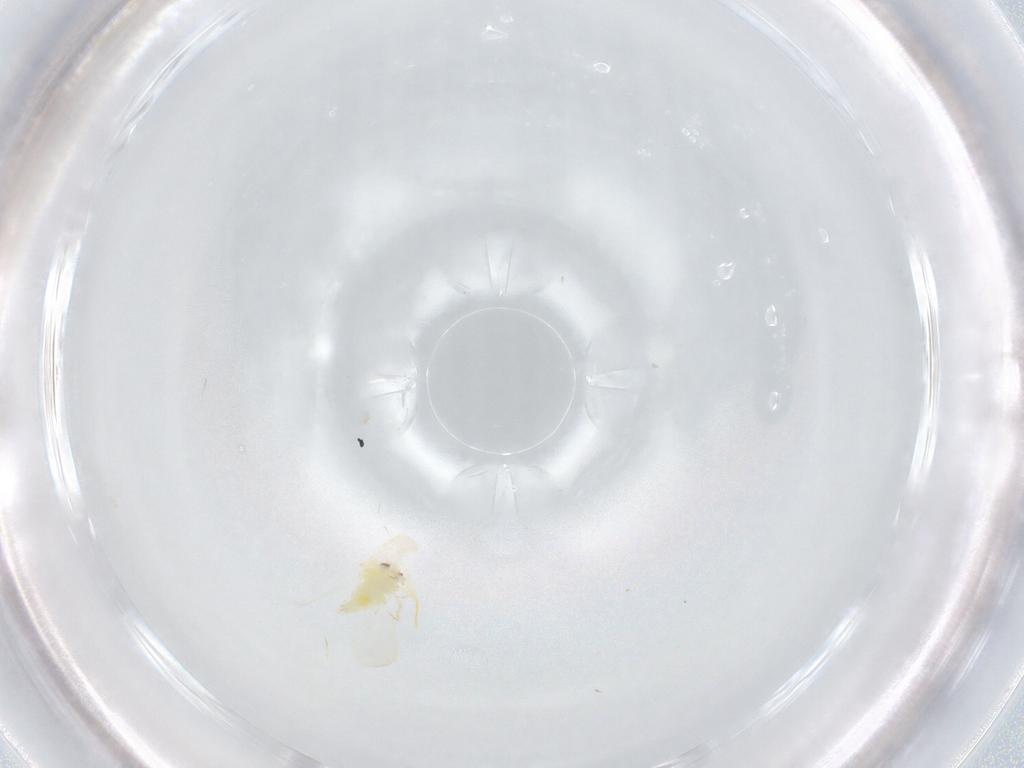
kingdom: Animalia
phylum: Arthropoda
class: Insecta
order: Hemiptera
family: Aleyrodidae
